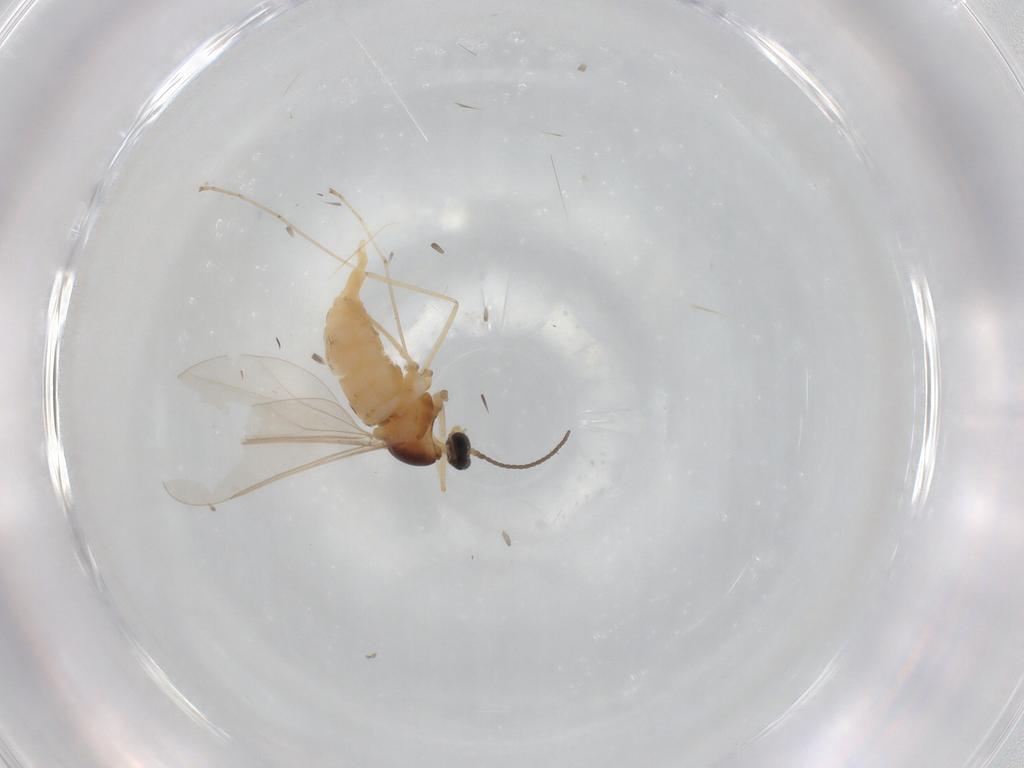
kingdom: Animalia
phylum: Arthropoda
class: Insecta
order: Diptera
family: Cecidomyiidae
